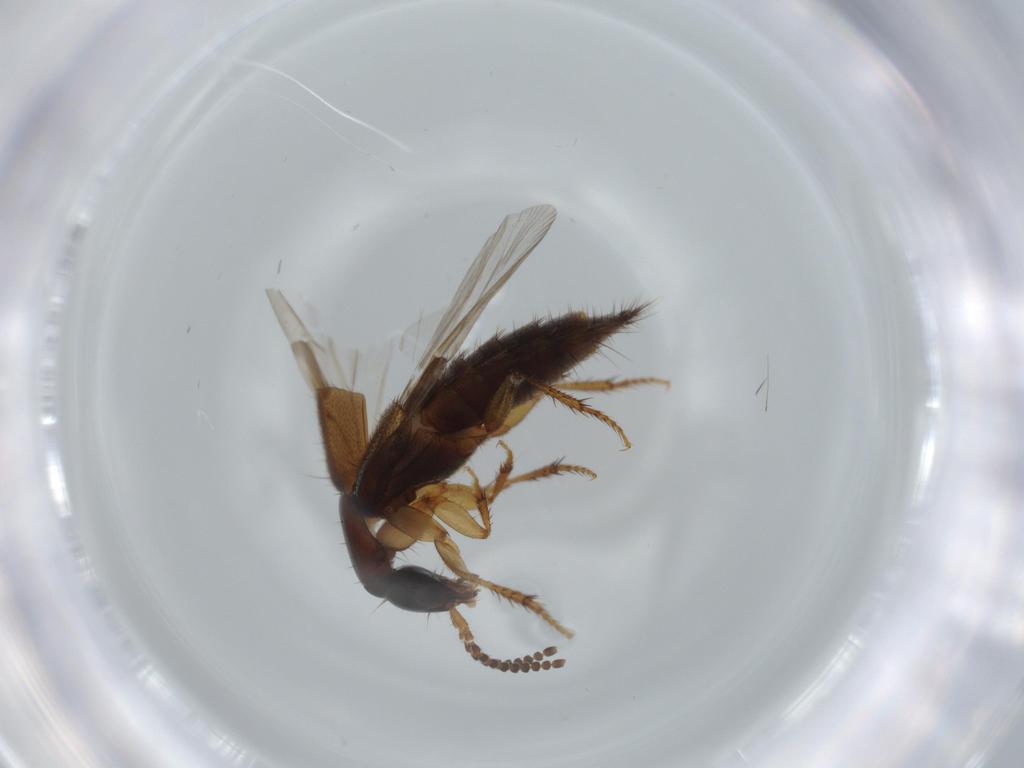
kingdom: Animalia
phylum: Arthropoda
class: Insecta
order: Coleoptera
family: Staphylinidae
